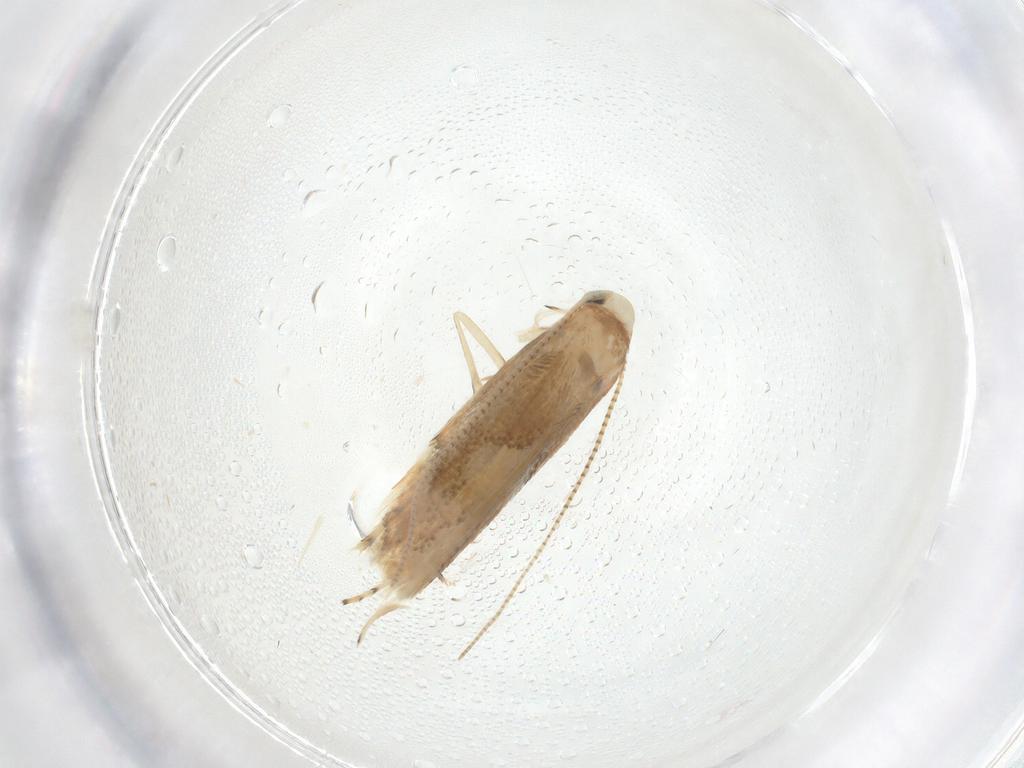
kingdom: Animalia
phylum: Arthropoda
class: Insecta
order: Lepidoptera
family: Gracillariidae
